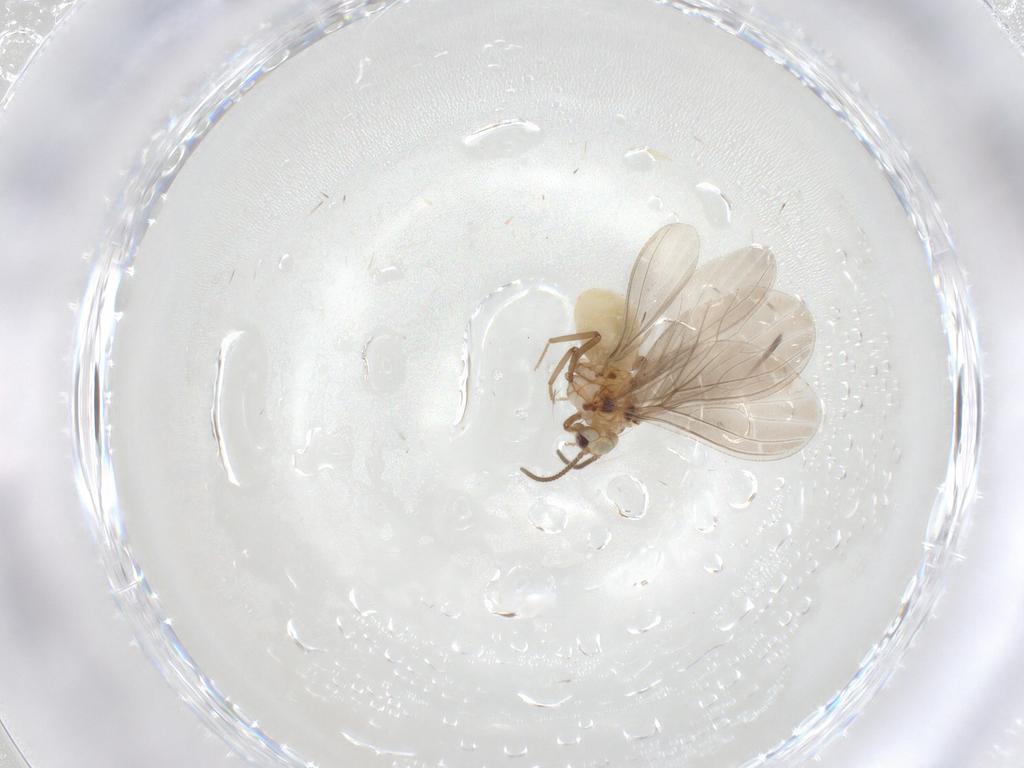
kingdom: Animalia
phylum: Arthropoda
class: Insecta
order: Neuroptera
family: Coniopterygidae
